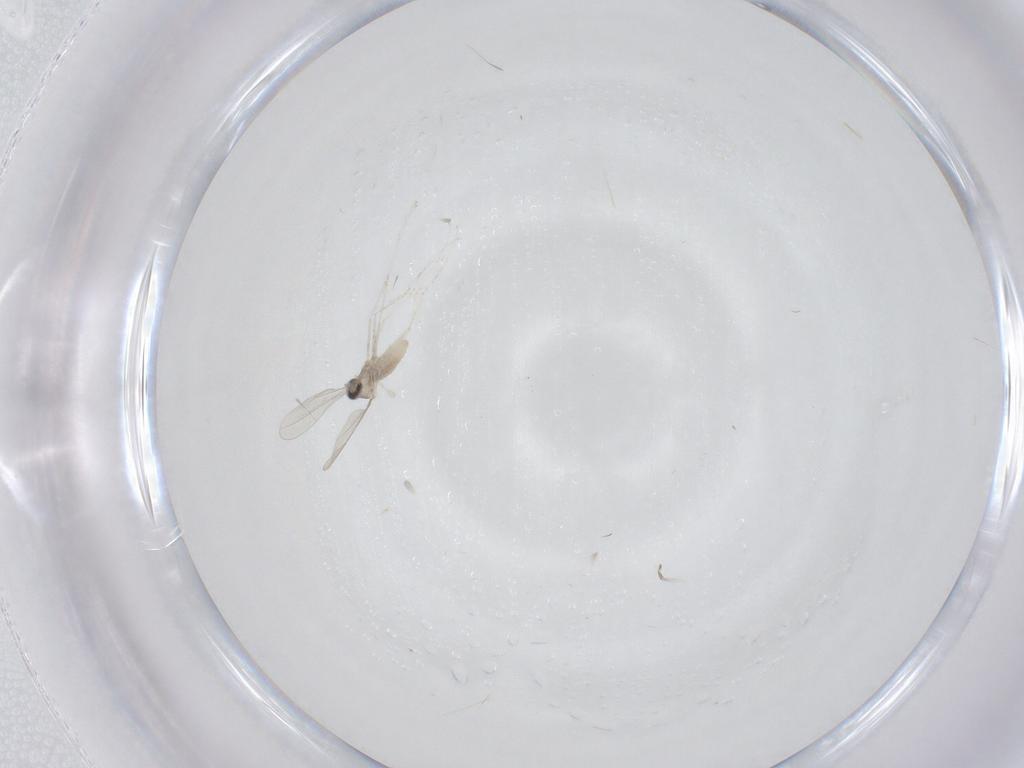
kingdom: Animalia
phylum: Arthropoda
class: Insecta
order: Diptera
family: Cecidomyiidae
